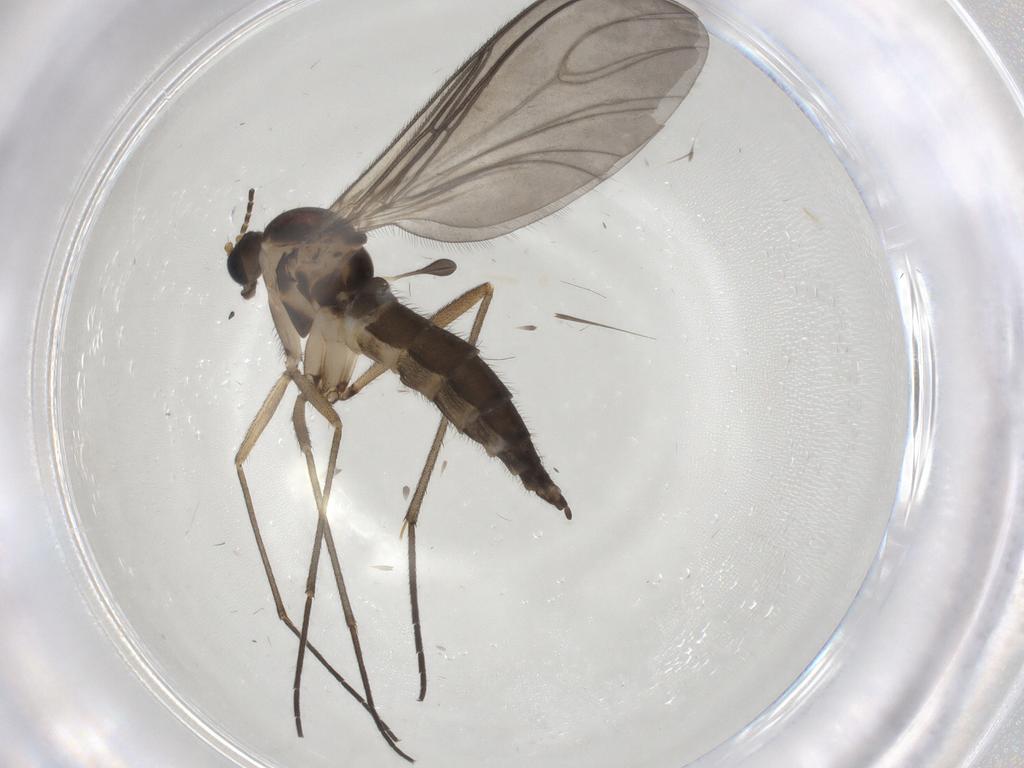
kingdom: Animalia
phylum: Arthropoda
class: Insecta
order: Diptera
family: Sciaridae
